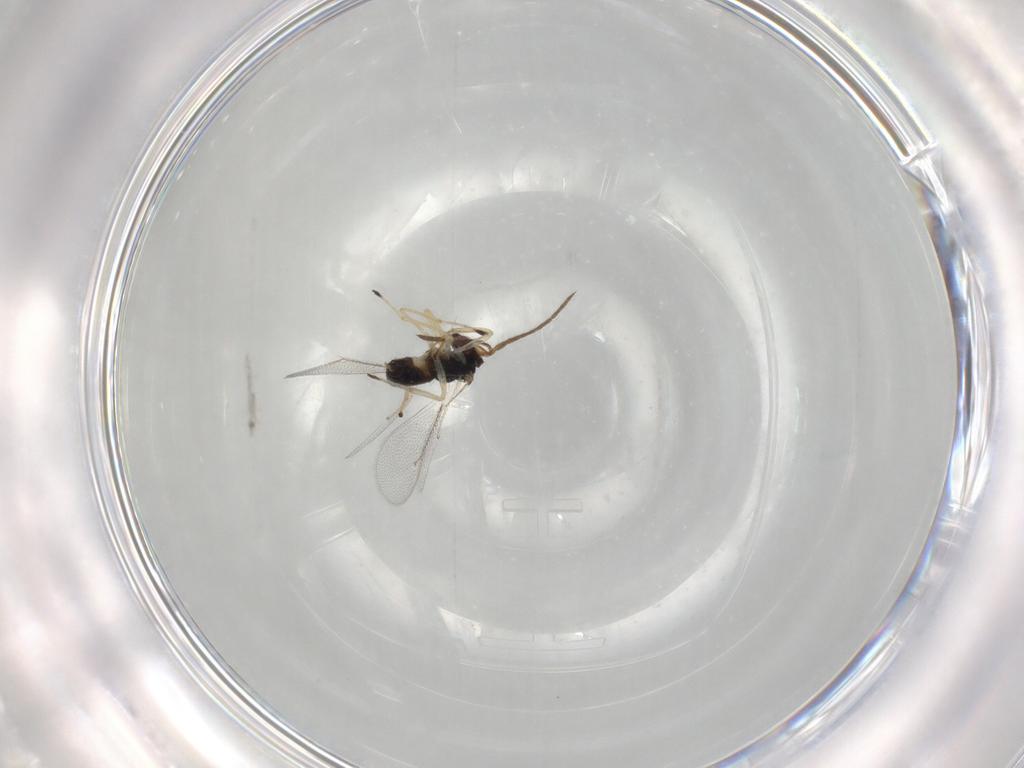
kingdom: Animalia
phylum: Arthropoda
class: Insecta
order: Hymenoptera
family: Eulophidae
